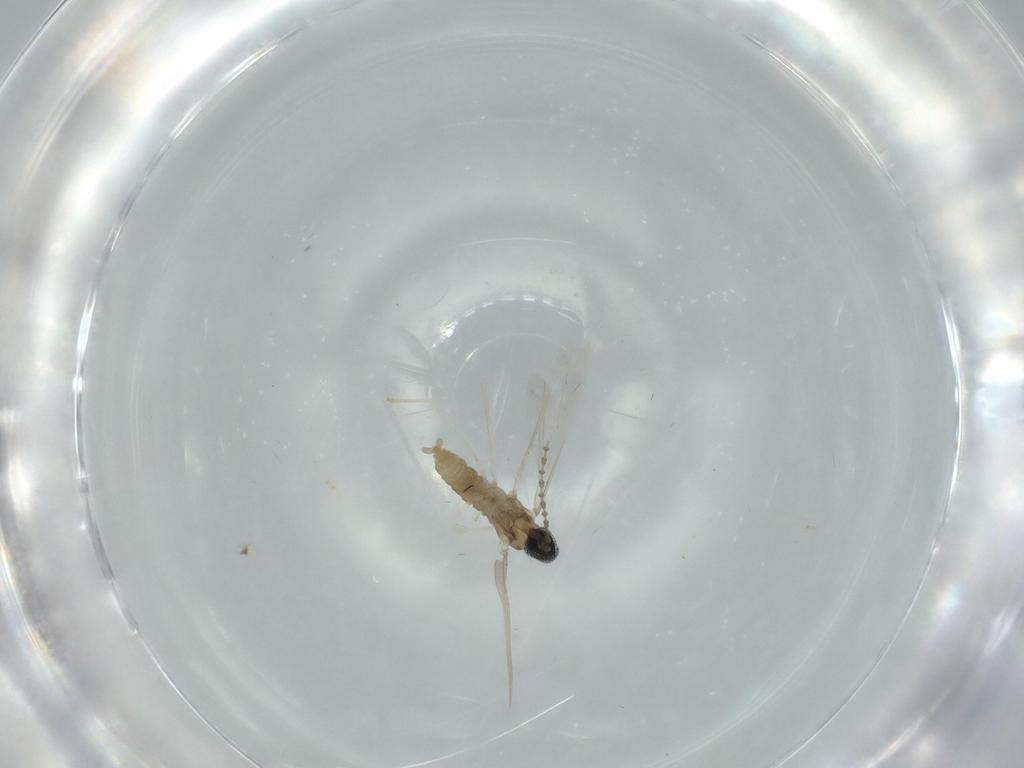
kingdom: Animalia
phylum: Arthropoda
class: Insecta
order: Diptera
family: Cecidomyiidae
